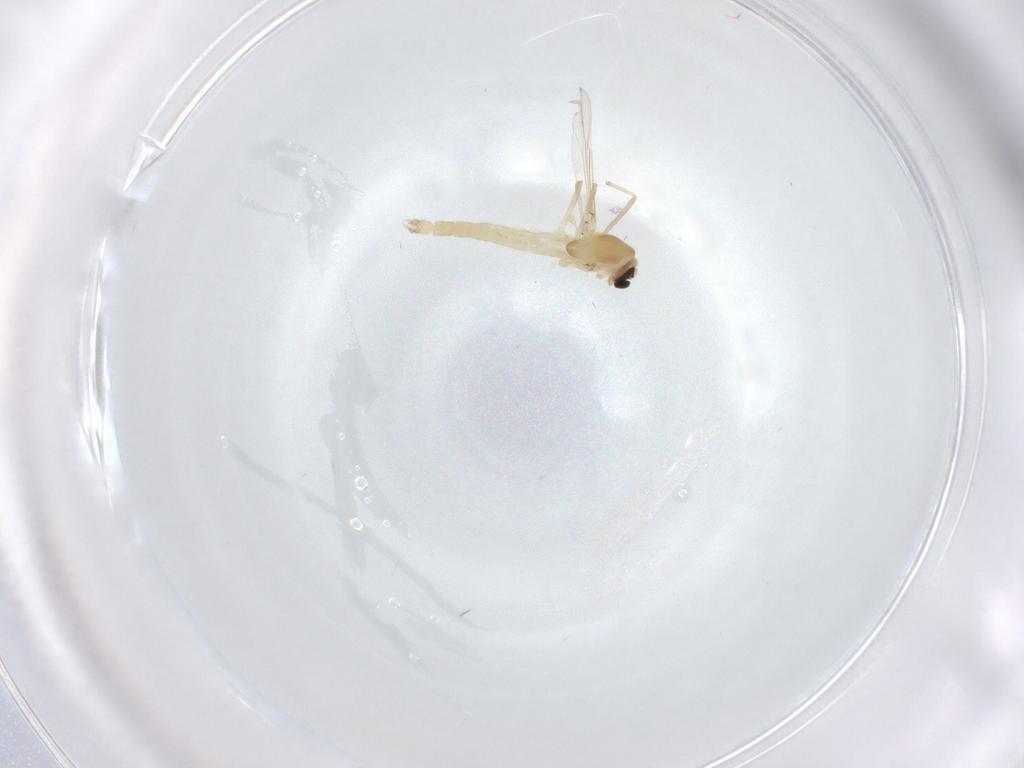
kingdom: Animalia
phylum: Arthropoda
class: Insecta
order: Diptera
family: Chironomidae
